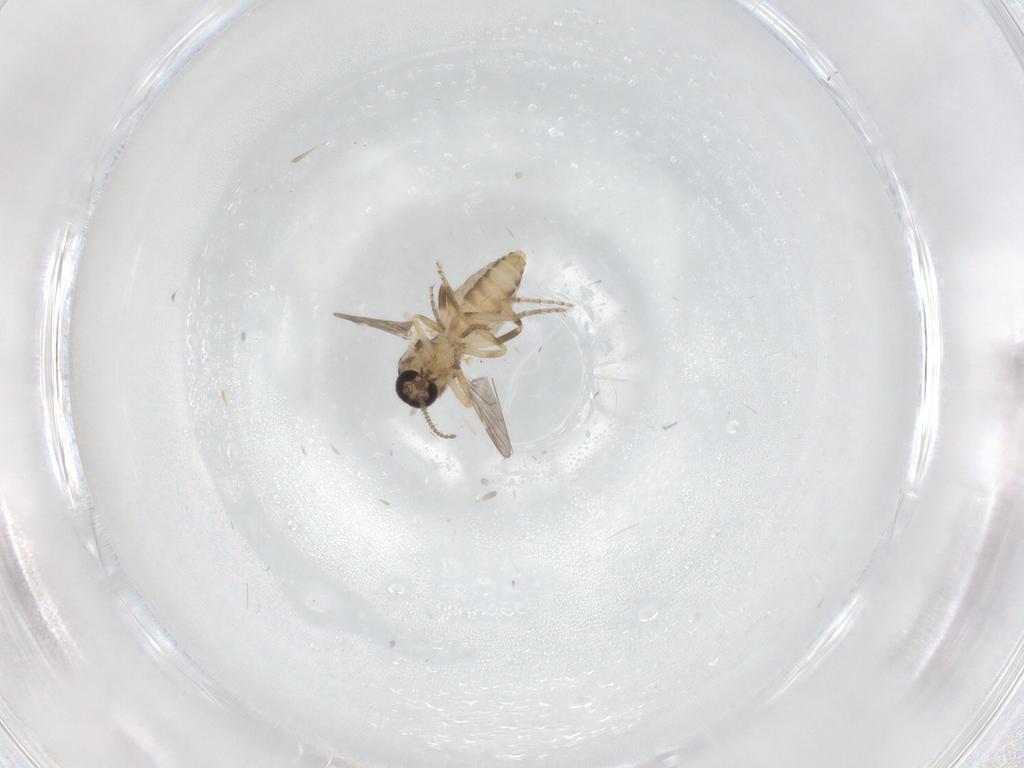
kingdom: Animalia
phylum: Arthropoda
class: Insecta
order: Diptera
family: Ceratopogonidae
